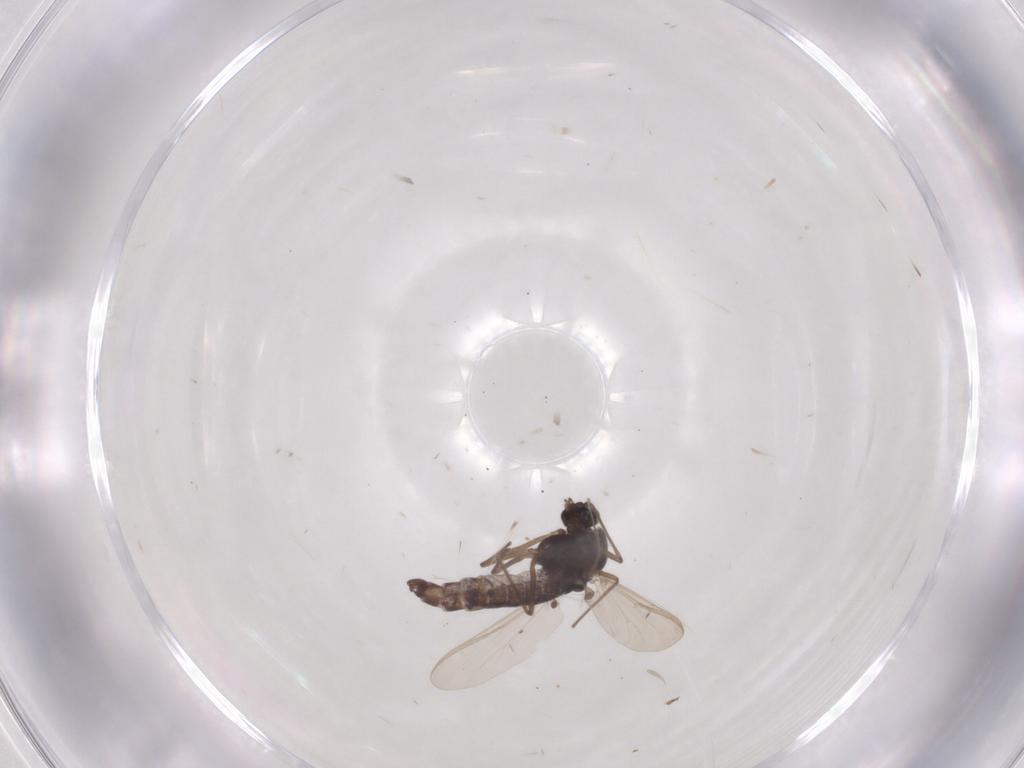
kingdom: Animalia
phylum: Arthropoda
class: Insecta
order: Diptera
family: Chironomidae
